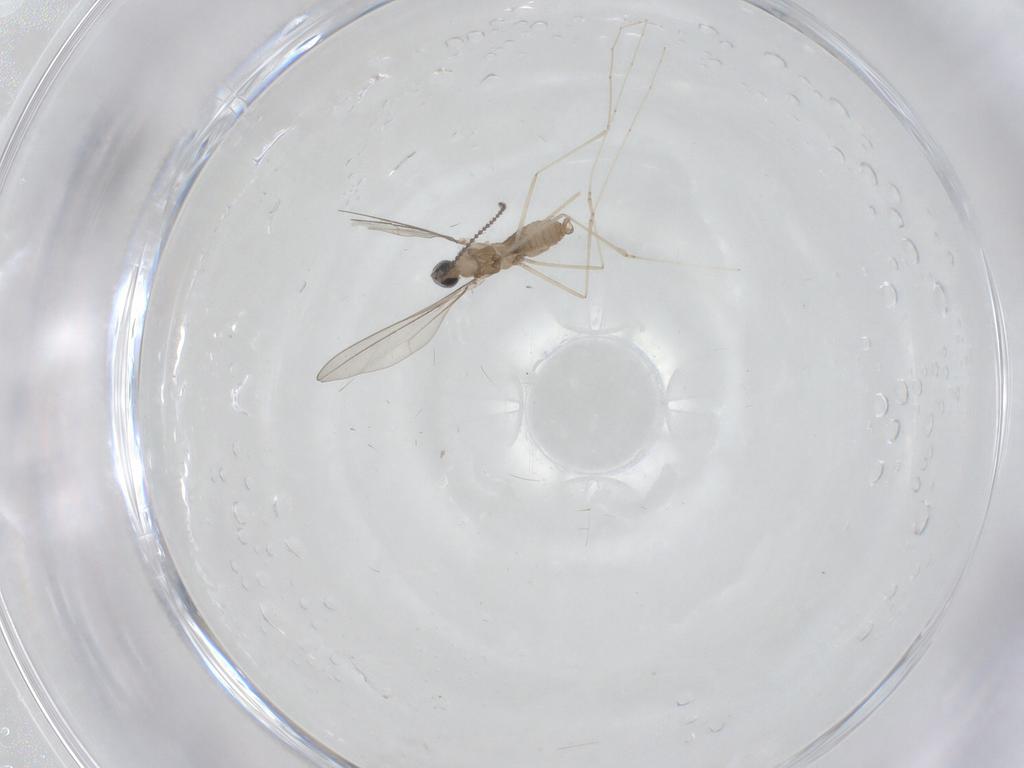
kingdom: Animalia
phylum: Arthropoda
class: Insecta
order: Diptera
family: Cecidomyiidae
